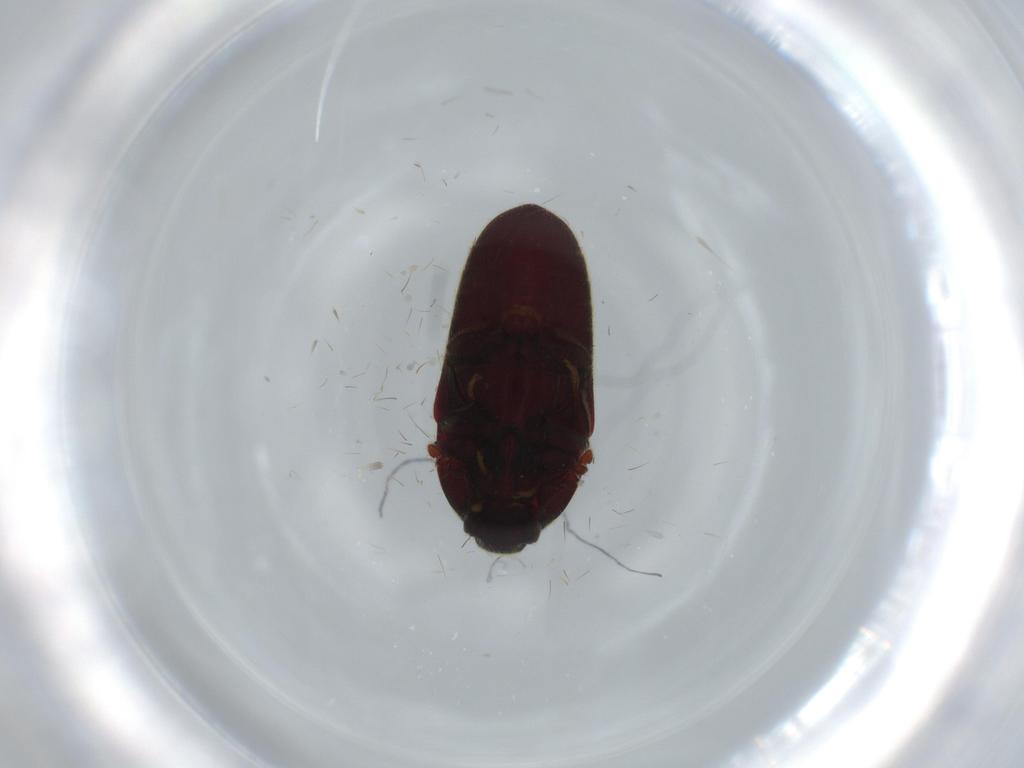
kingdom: Animalia
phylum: Arthropoda
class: Insecta
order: Coleoptera
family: Throscidae
